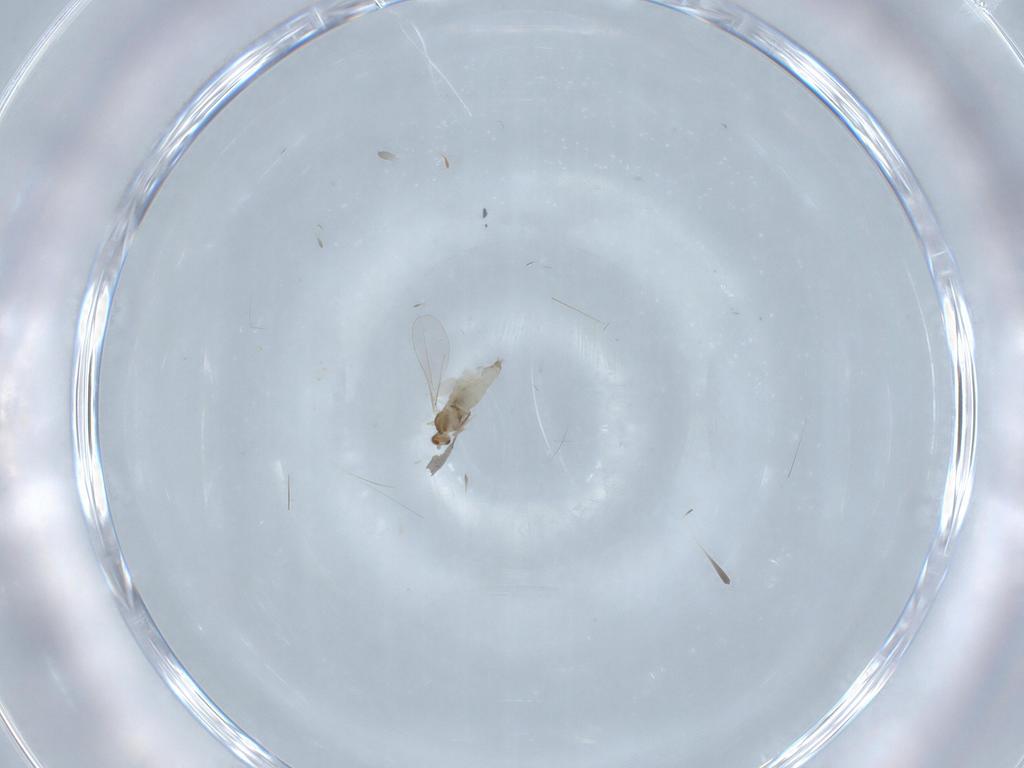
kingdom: Animalia
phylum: Arthropoda
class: Insecta
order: Diptera
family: Cecidomyiidae
